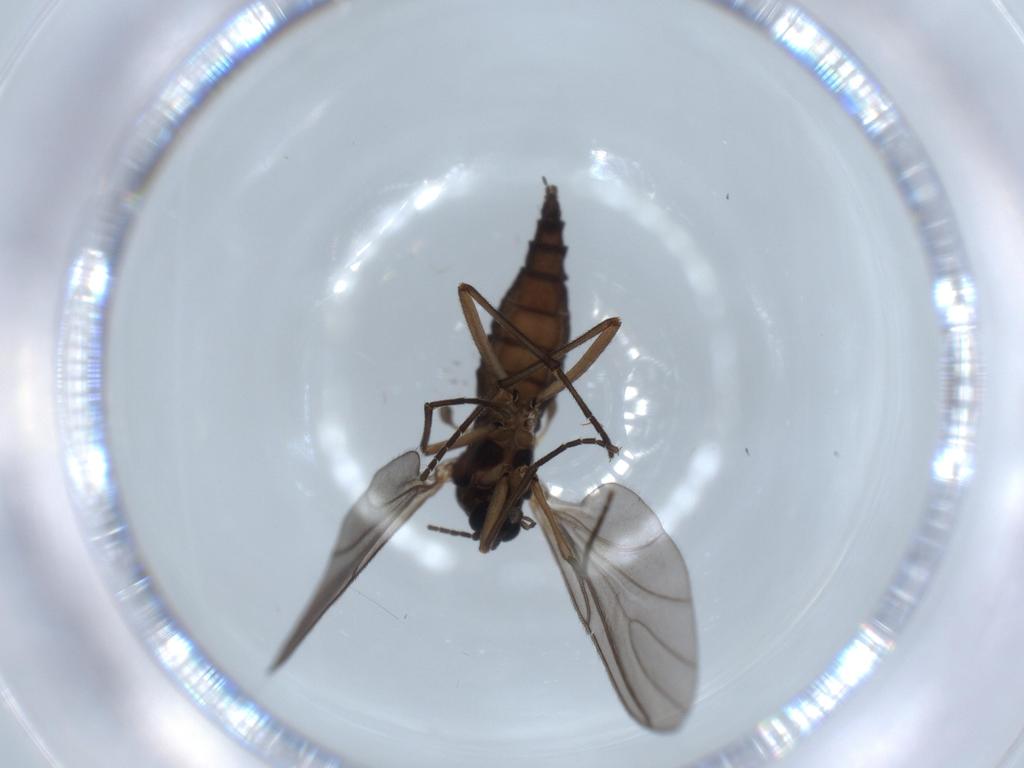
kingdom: Animalia
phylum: Arthropoda
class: Insecta
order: Diptera
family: Sciaridae
